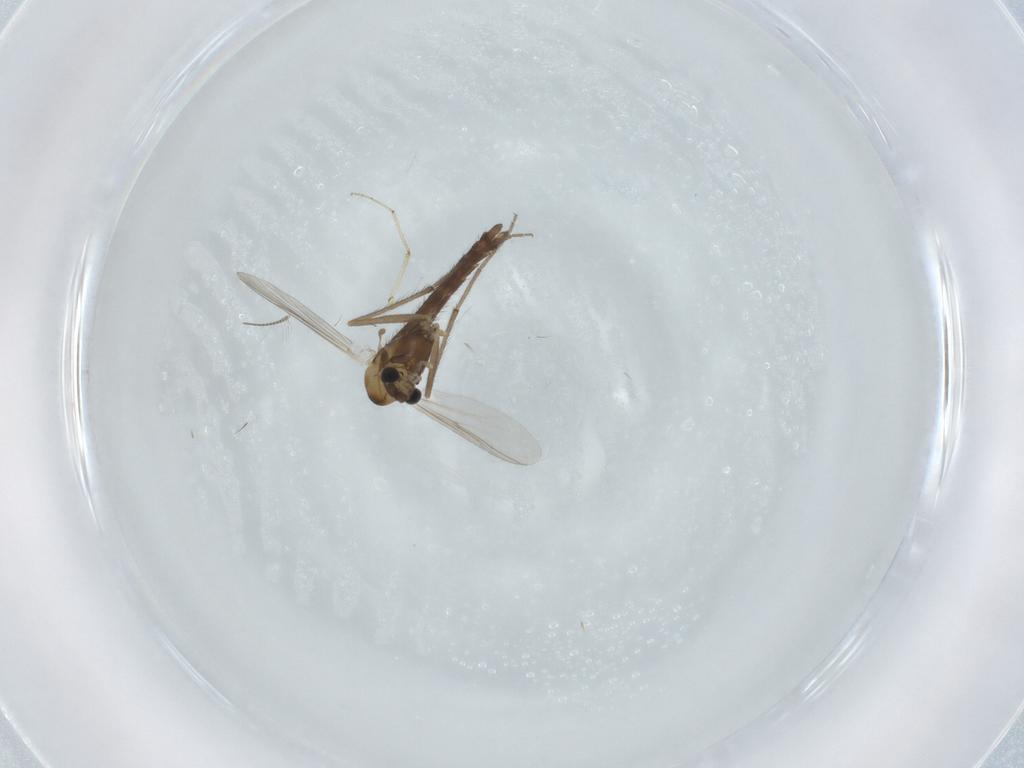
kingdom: Animalia
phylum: Arthropoda
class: Insecta
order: Diptera
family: Chironomidae
